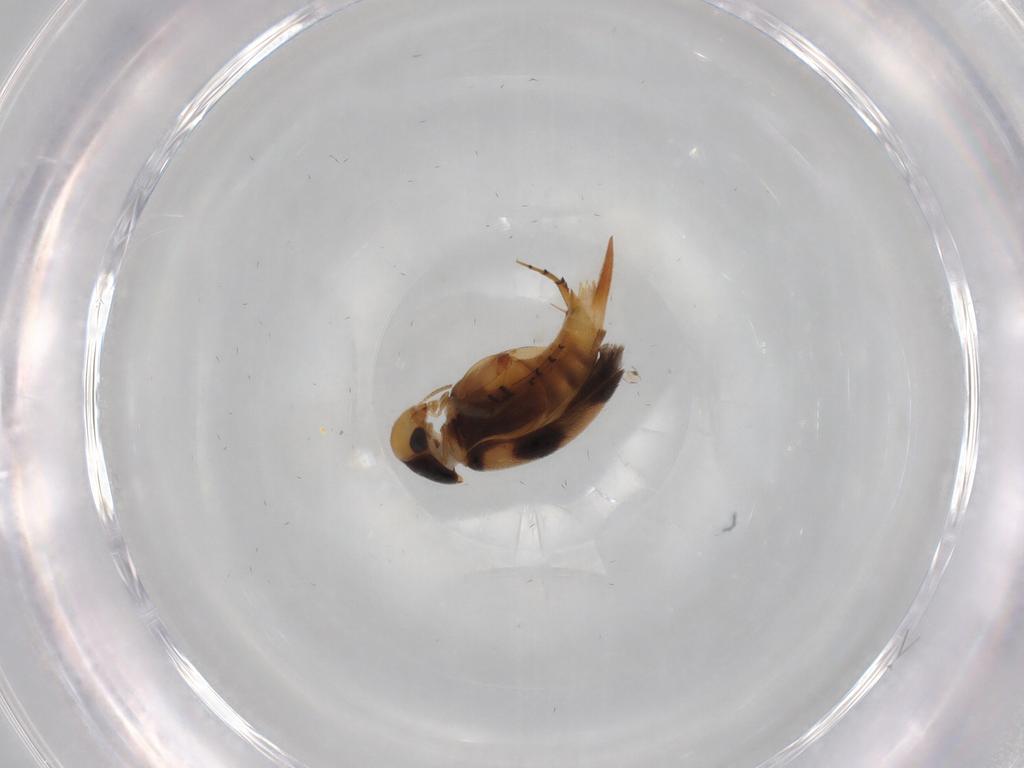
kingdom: Animalia
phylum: Arthropoda
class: Insecta
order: Coleoptera
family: Mordellidae
